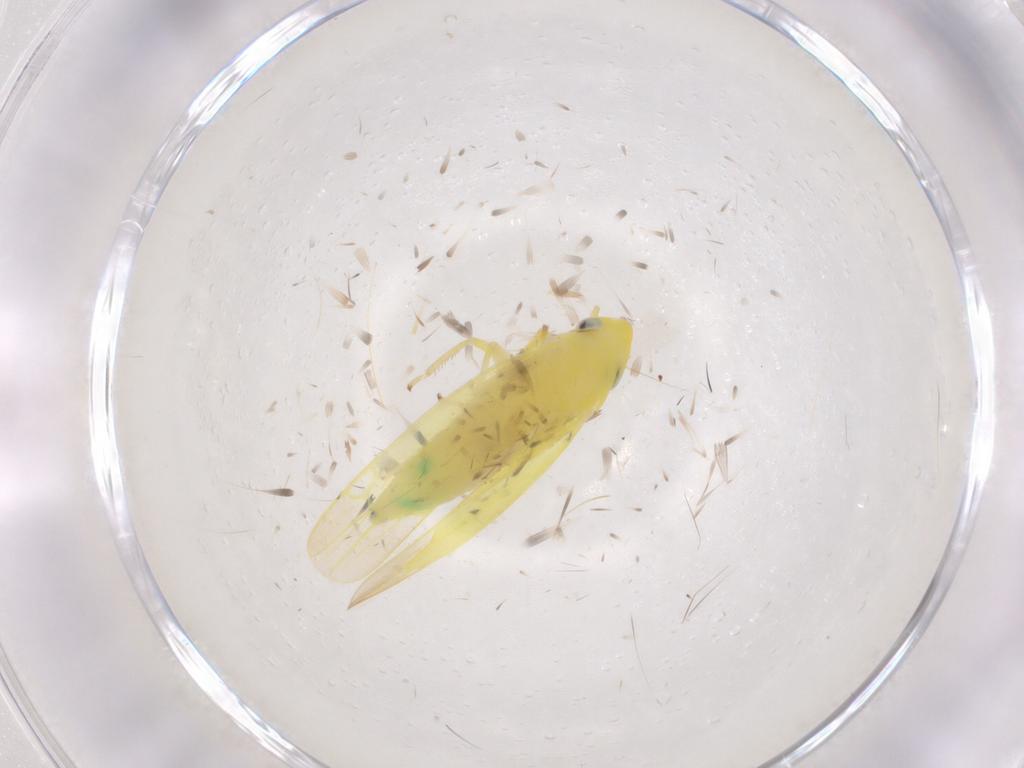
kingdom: Animalia
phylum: Arthropoda
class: Insecta
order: Hemiptera
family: Cicadellidae
